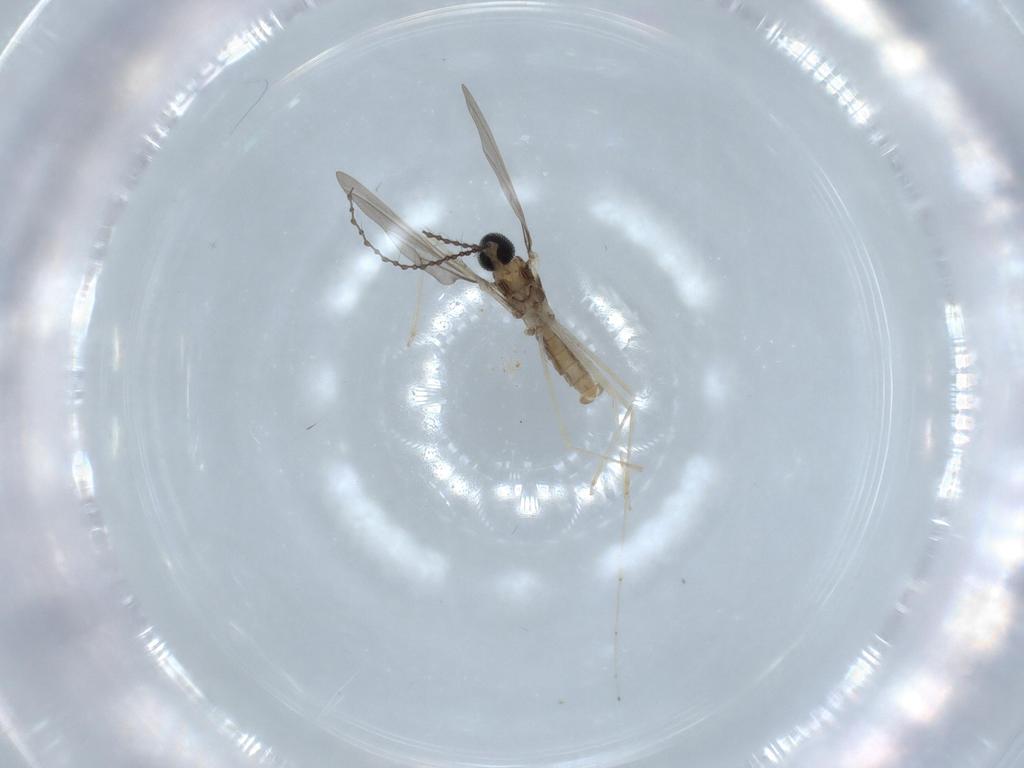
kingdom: Animalia
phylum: Arthropoda
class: Insecta
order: Diptera
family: Cecidomyiidae
